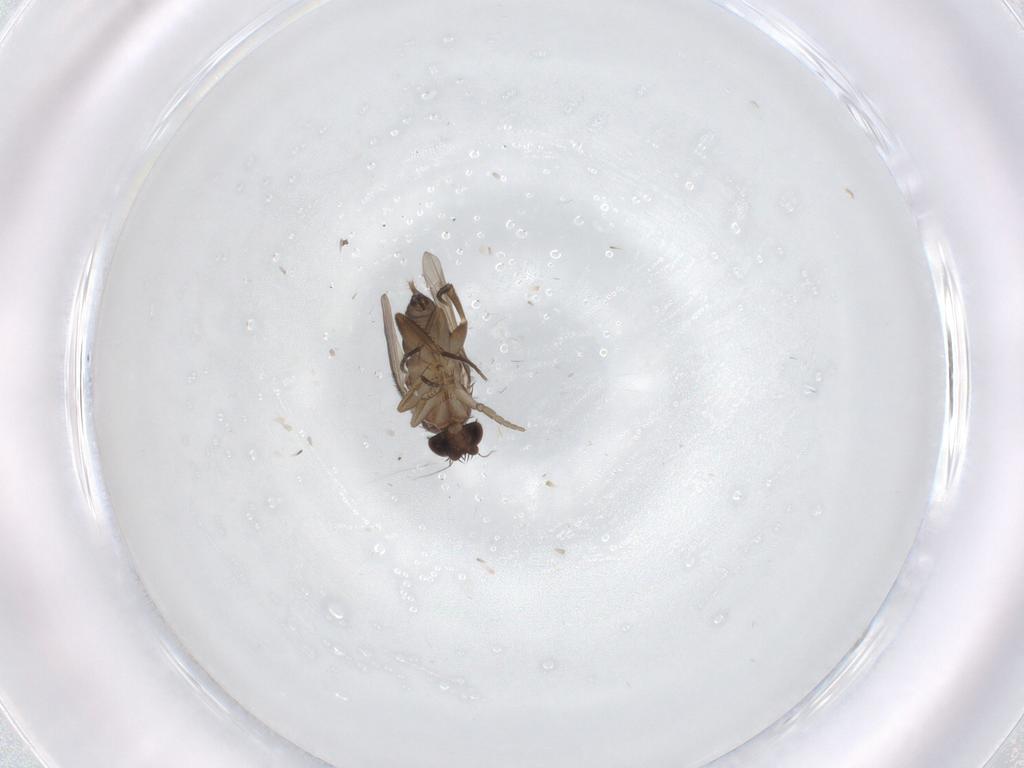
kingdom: Animalia
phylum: Arthropoda
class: Insecta
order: Diptera
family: Phoridae
